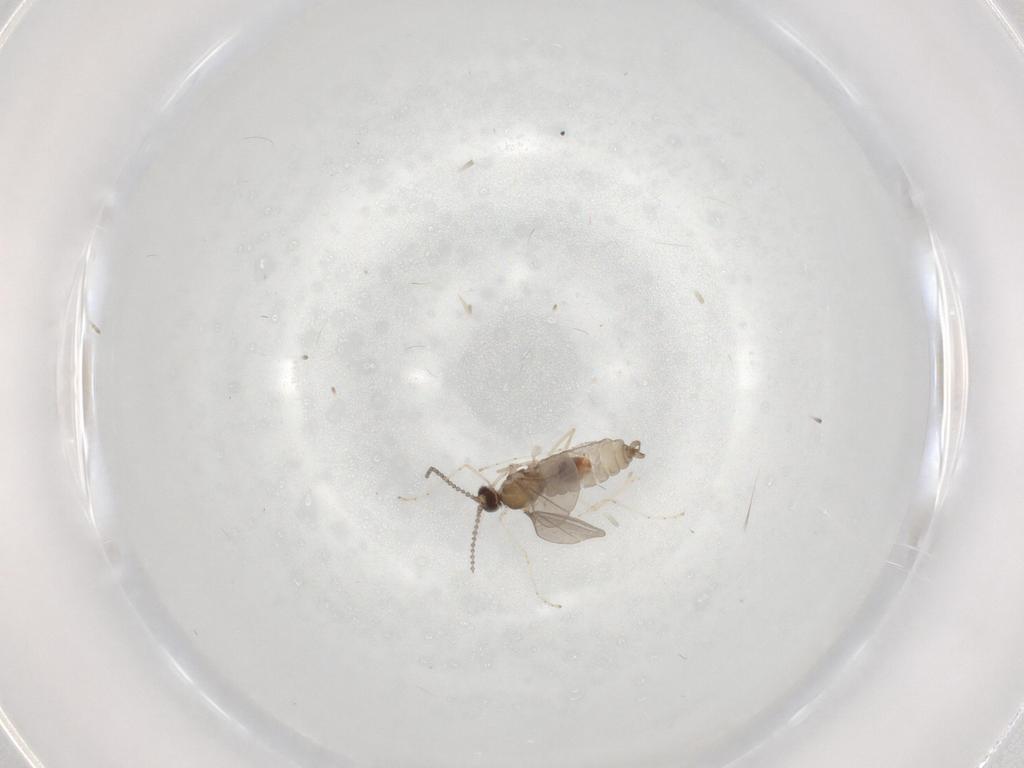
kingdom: Animalia
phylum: Arthropoda
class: Insecta
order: Diptera
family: Cecidomyiidae
